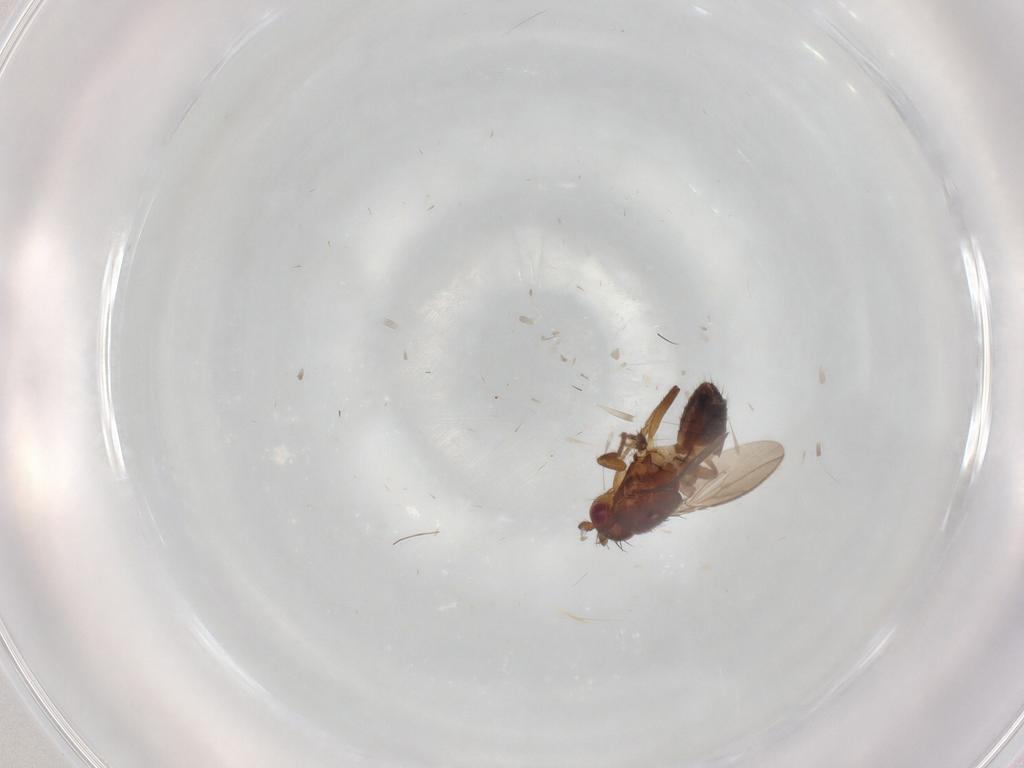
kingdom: Animalia
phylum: Arthropoda
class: Insecta
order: Diptera
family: Sphaeroceridae
